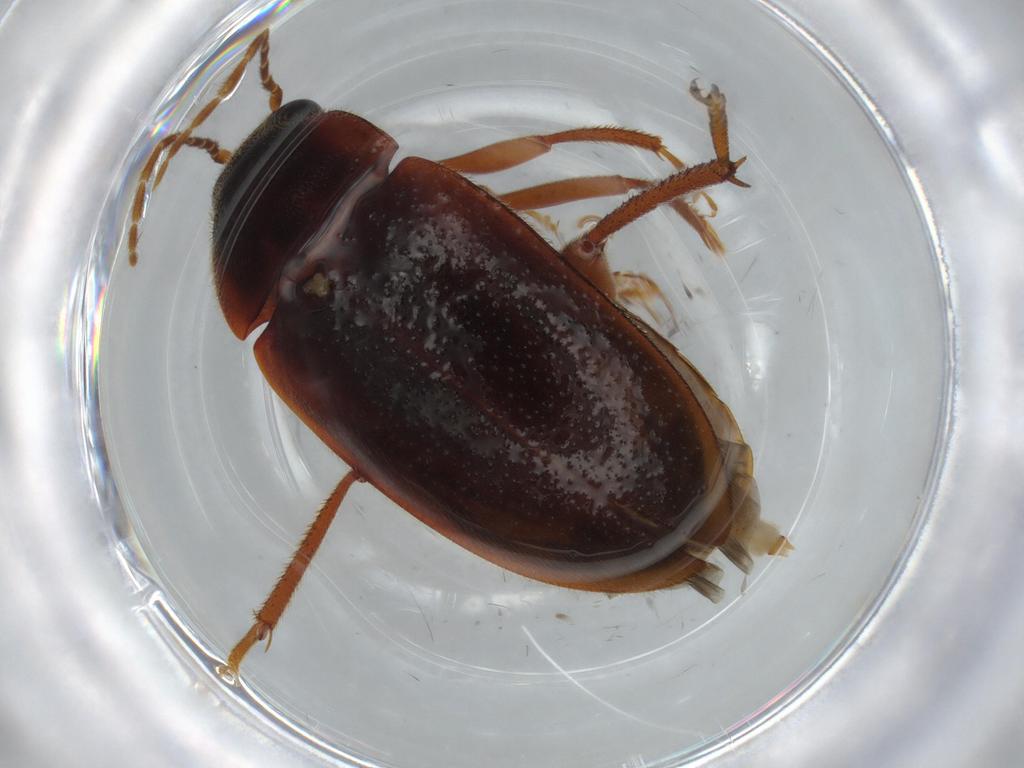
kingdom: Animalia
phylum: Arthropoda
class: Insecta
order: Coleoptera
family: Ptilodactylidae
